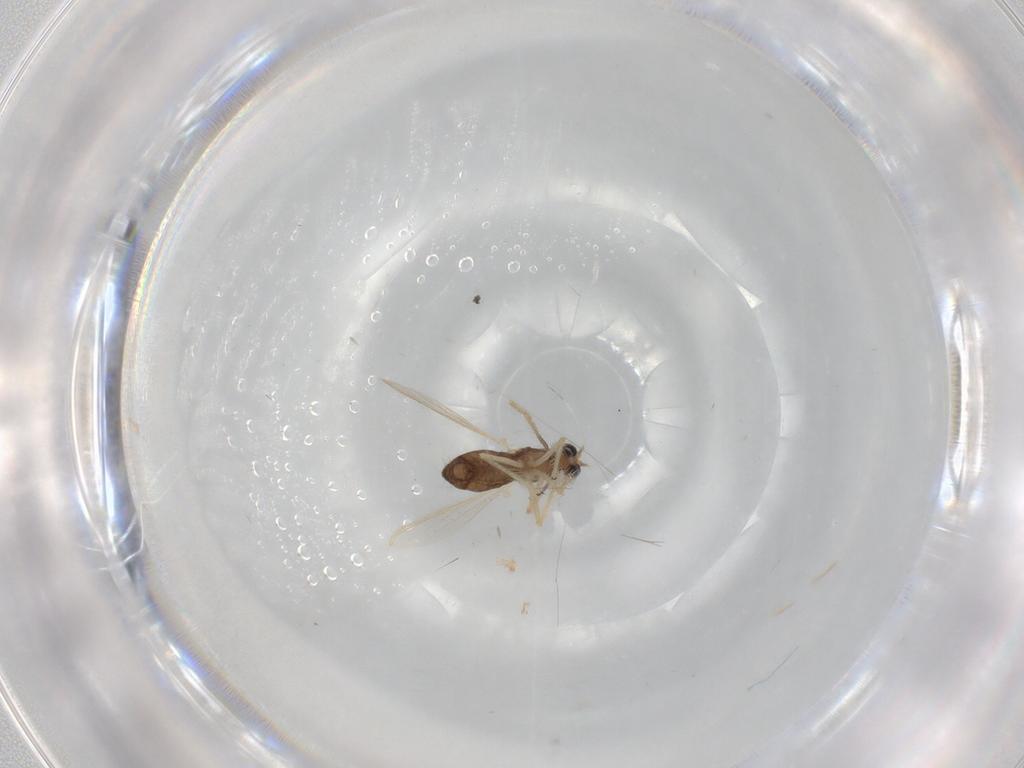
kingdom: Animalia
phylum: Arthropoda
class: Insecta
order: Diptera
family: Chironomidae
